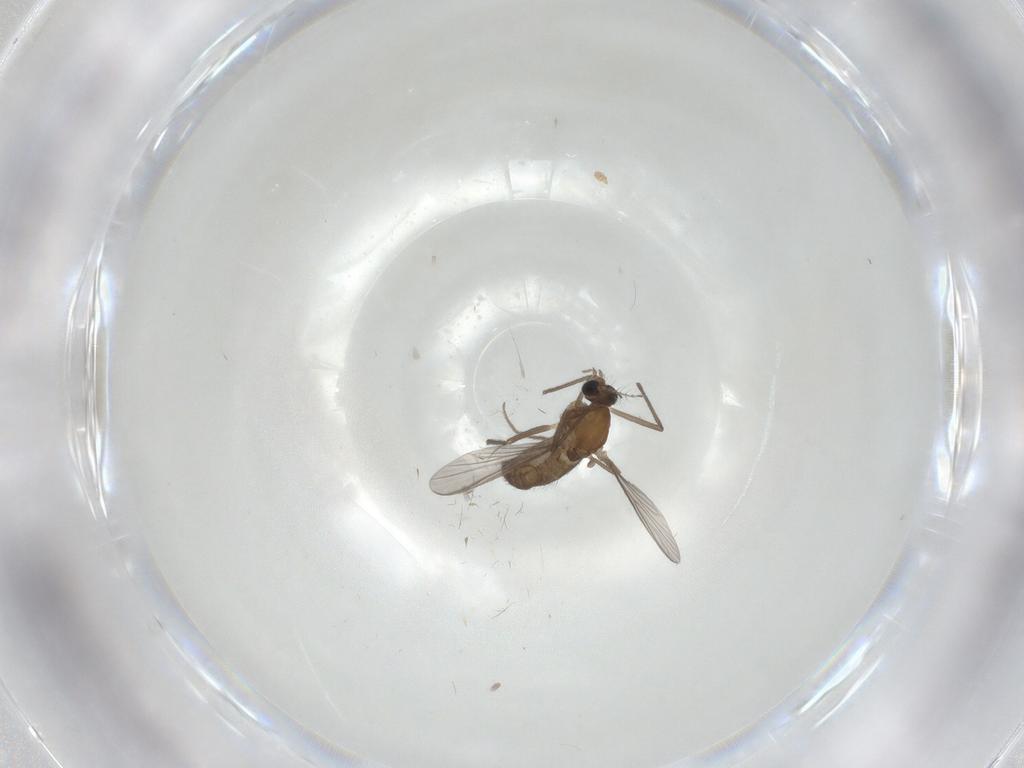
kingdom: Animalia
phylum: Arthropoda
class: Insecta
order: Diptera
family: Chironomidae
